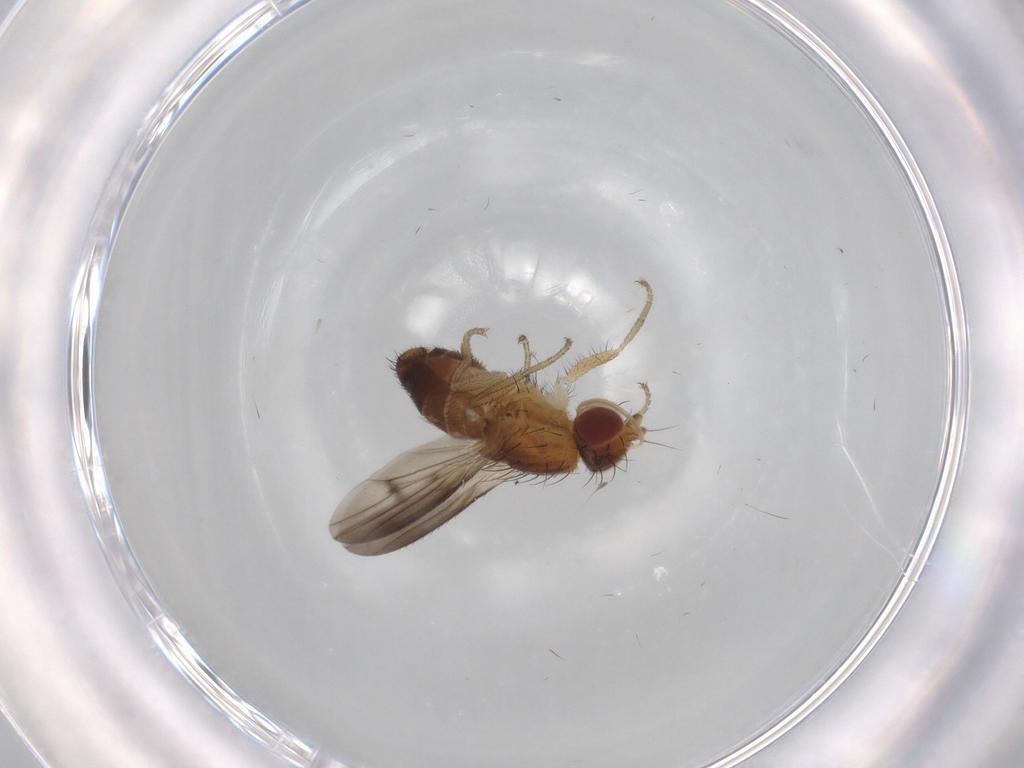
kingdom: Animalia
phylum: Arthropoda
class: Insecta
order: Diptera
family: Heleomyzidae
